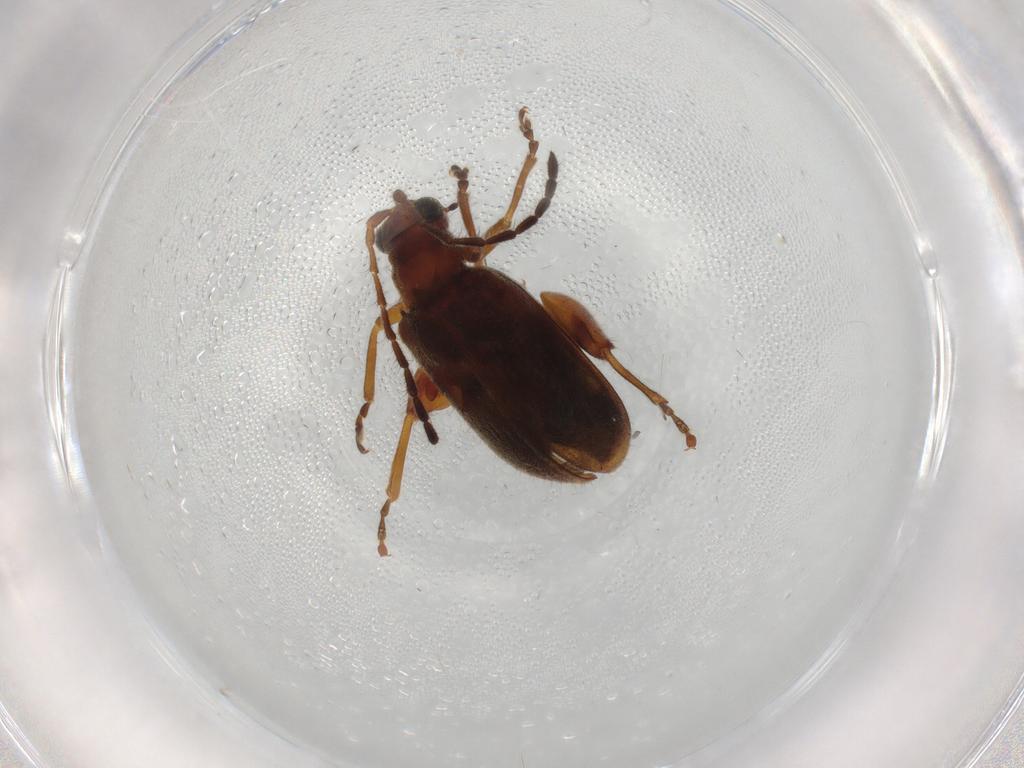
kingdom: Animalia
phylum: Arthropoda
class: Insecta
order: Coleoptera
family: Chrysomelidae
